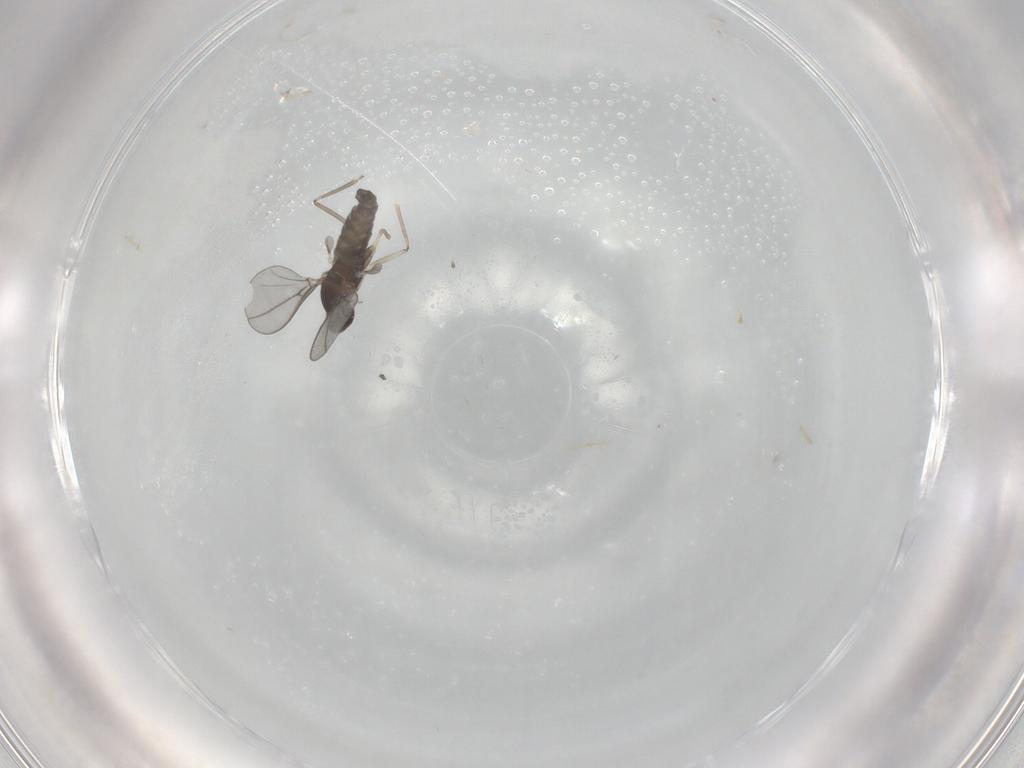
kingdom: Animalia
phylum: Arthropoda
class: Insecta
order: Diptera
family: Cecidomyiidae
